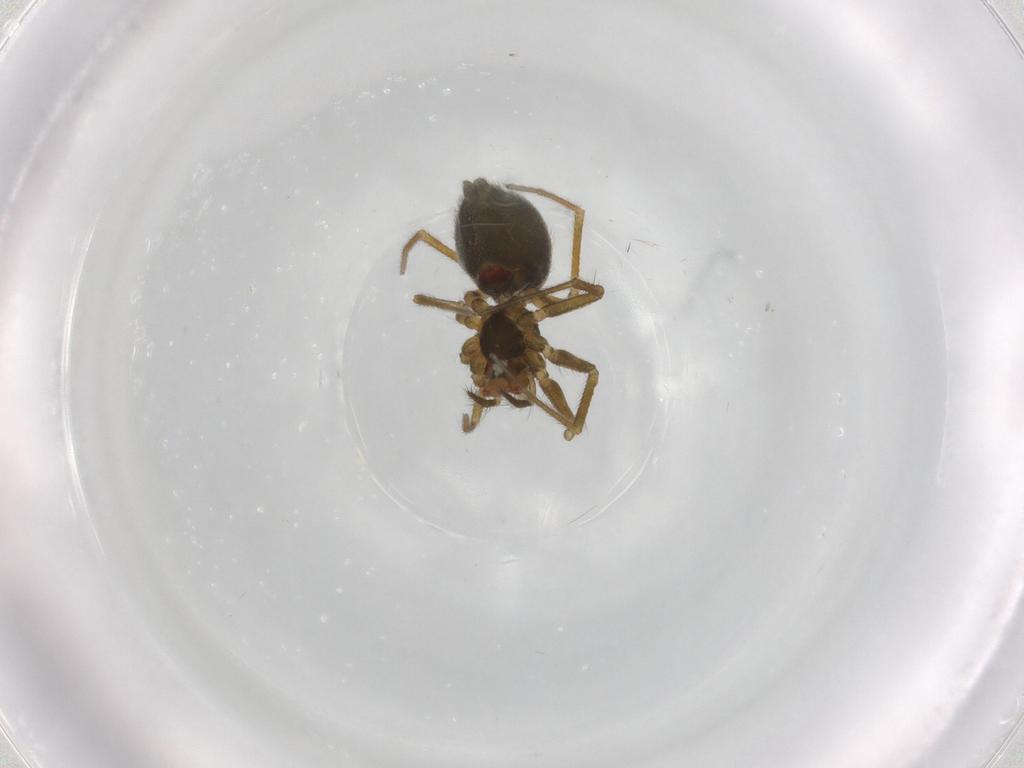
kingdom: Animalia
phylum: Arthropoda
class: Arachnida
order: Araneae
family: Linyphiidae
